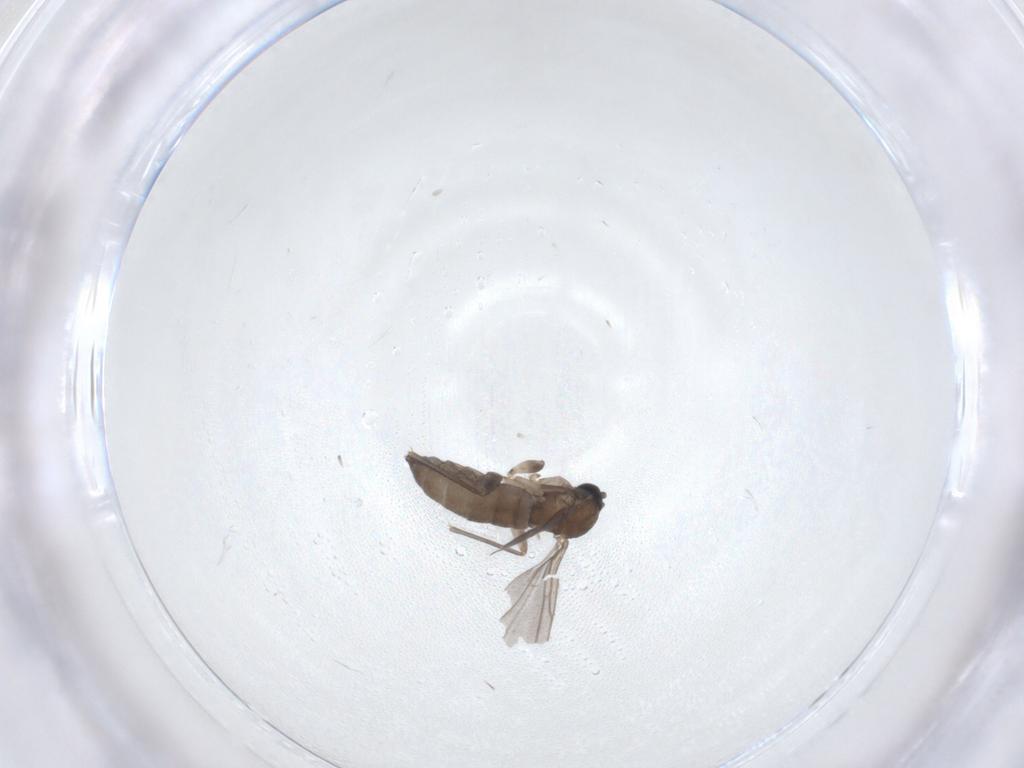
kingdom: Animalia
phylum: Arthropoda
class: Insecta
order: Diptera
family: Sciaridae
